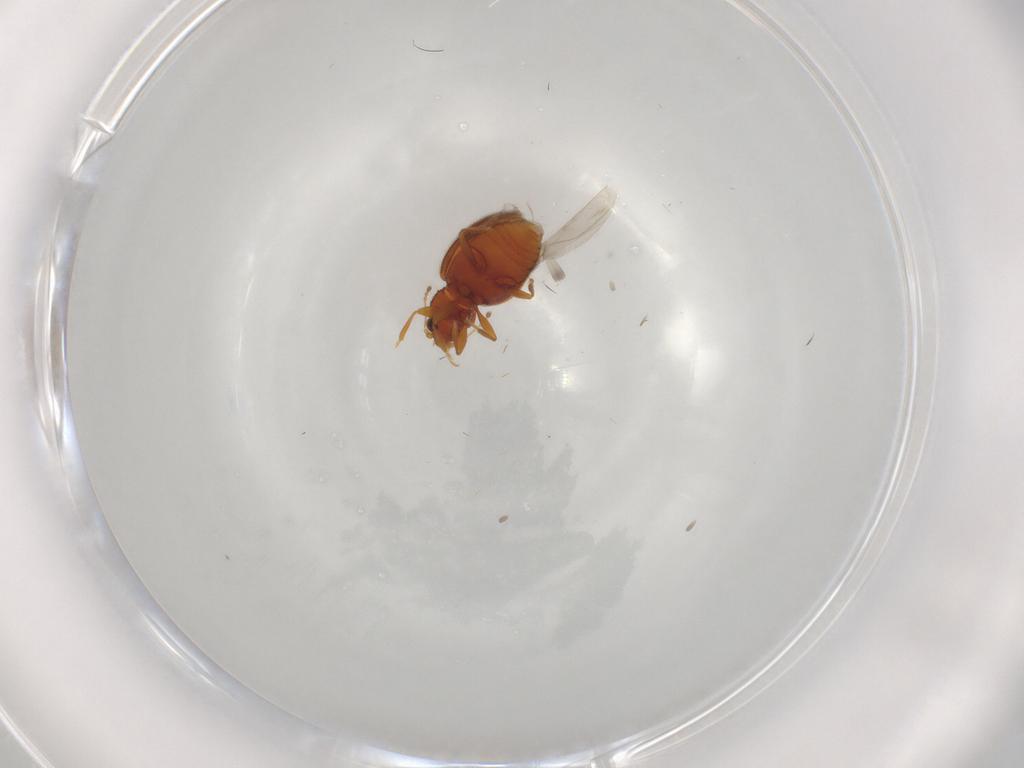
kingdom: Animalia
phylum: Arthropoda
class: Insecta
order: Coleoptera
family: Latridiidae
